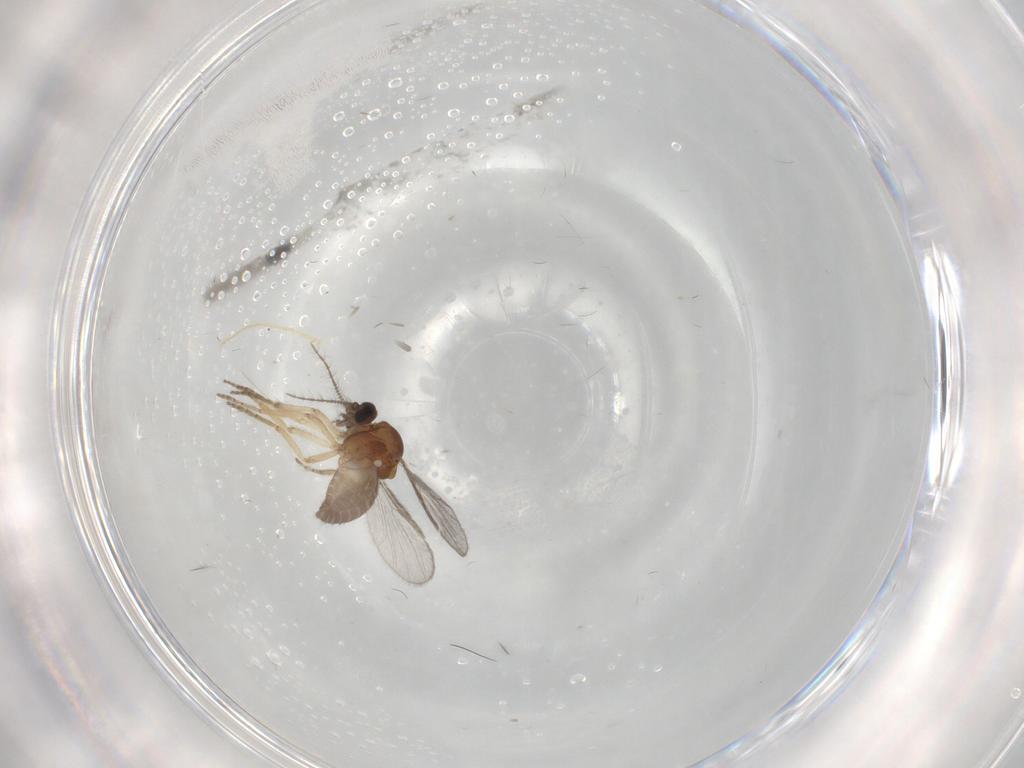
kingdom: Animalia
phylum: Arthropoda
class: Insecta
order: Diptera
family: Ceratopogonidae
